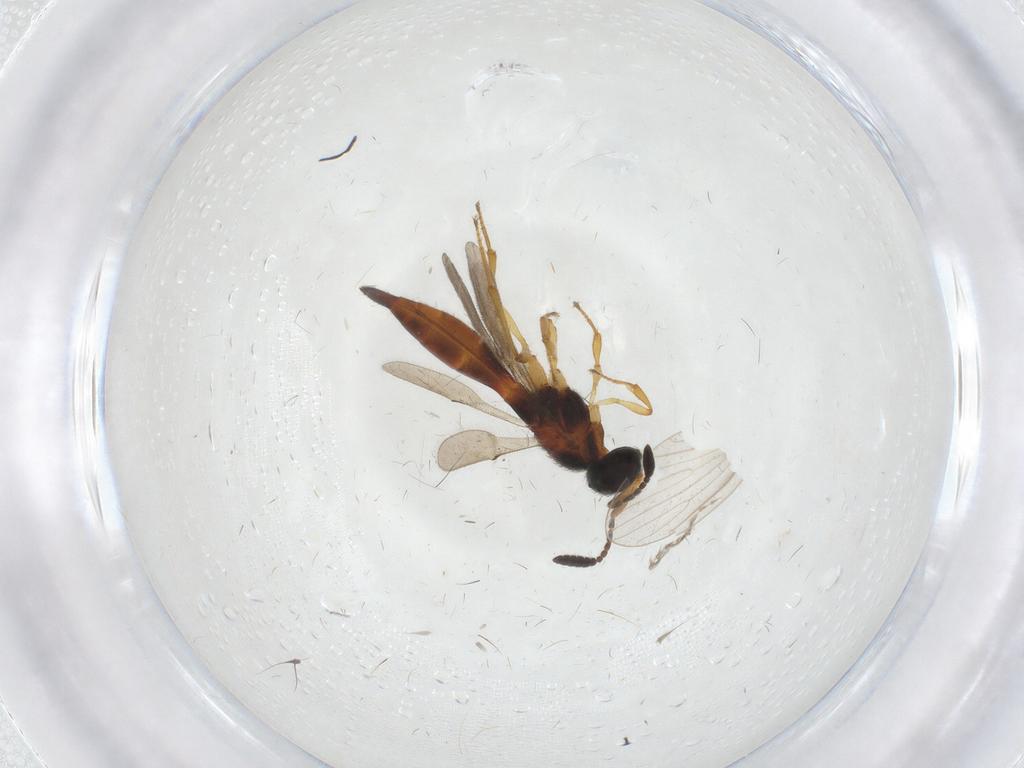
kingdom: Animalia
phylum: Arthropoda
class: Insecta
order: Hymenoptera
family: Scelionidae
